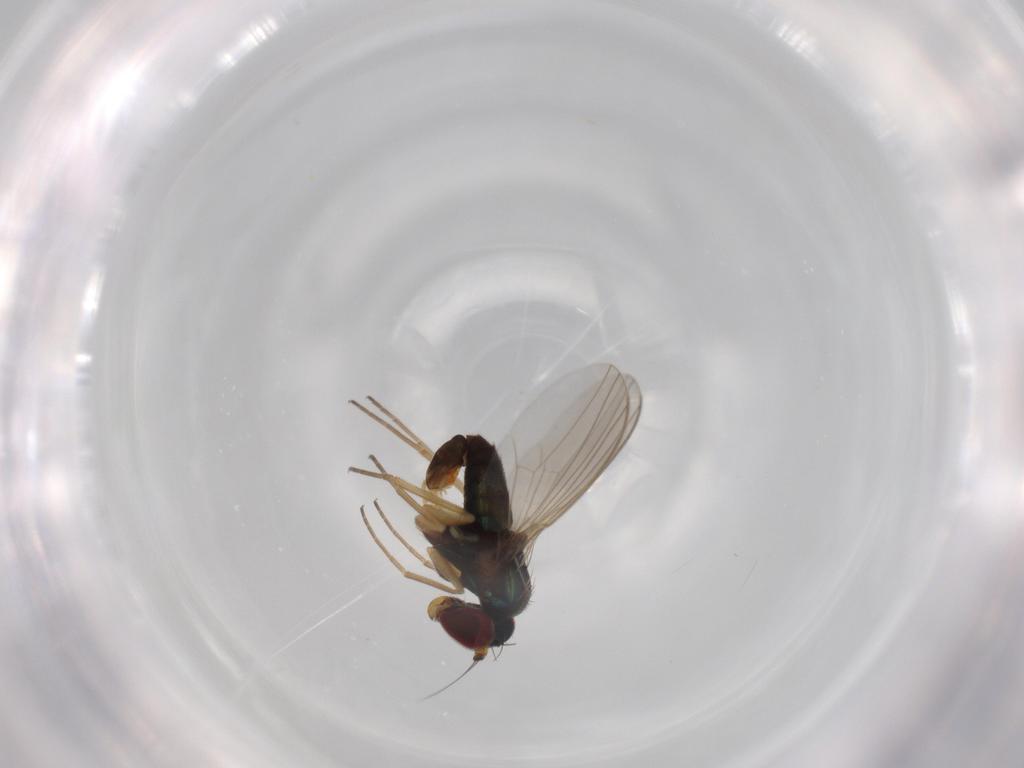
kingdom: Animalia
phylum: Arthropoda
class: Insecta
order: Diptera
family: Dolichopodidae
